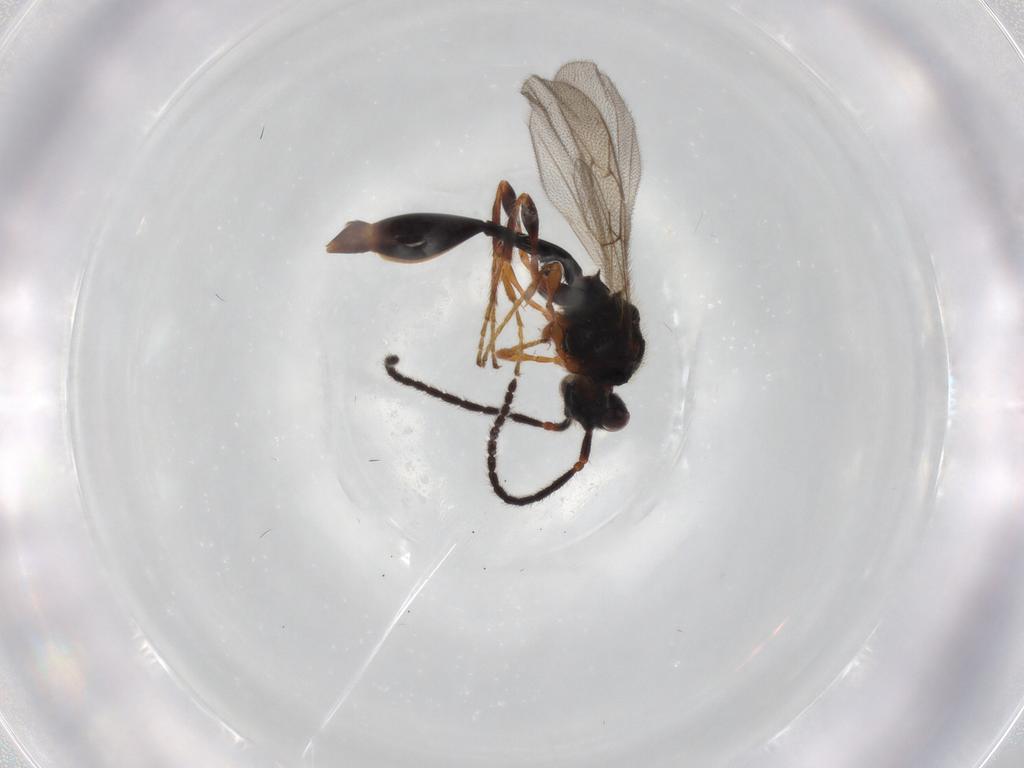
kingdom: Animalia
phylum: Arthropoda
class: Insecta
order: Hymenoptera
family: Diapriidae
